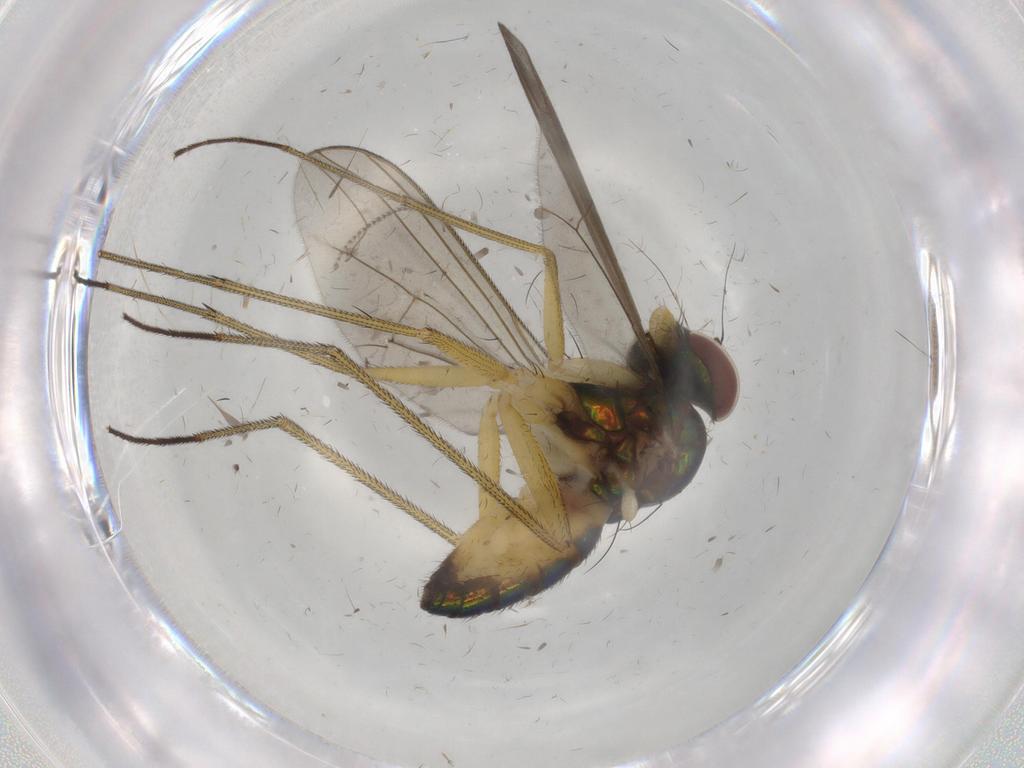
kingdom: Animalia
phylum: Arthropoda
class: Insecta
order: Diptera
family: Dolichopodidae
